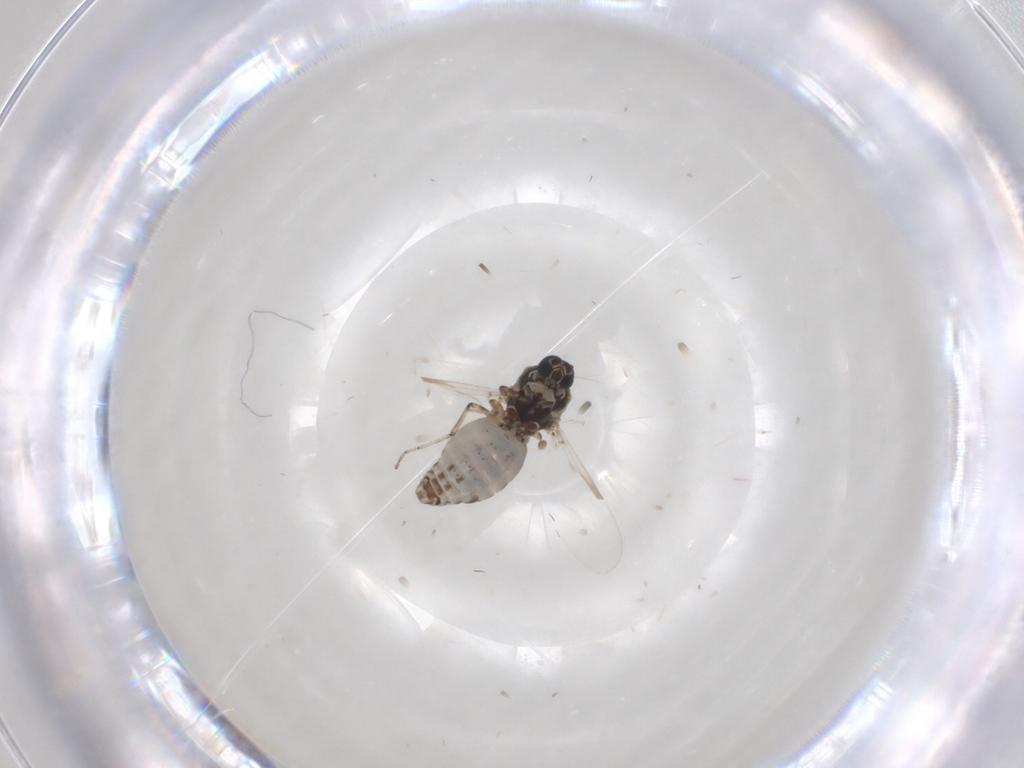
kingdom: Animalia
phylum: Arthropoda
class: Insecta
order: Diptera
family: Ceratopogonidae
